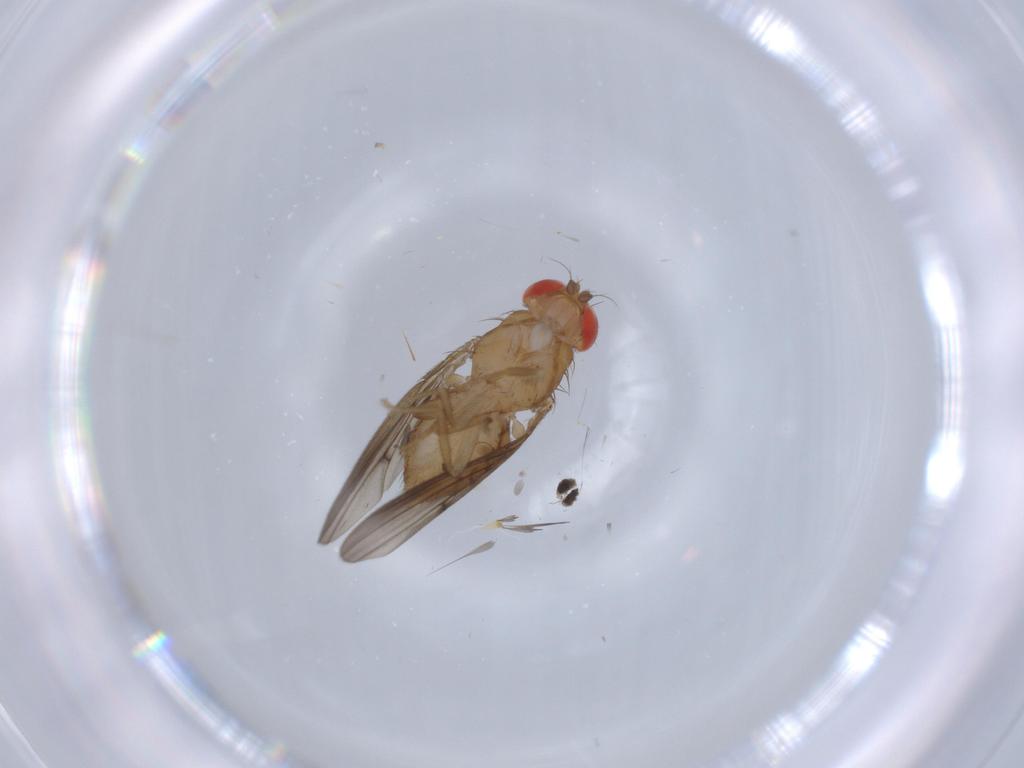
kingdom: Animalia
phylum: Arthropoda
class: Insecta
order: Diptera
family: Drosophilidae
